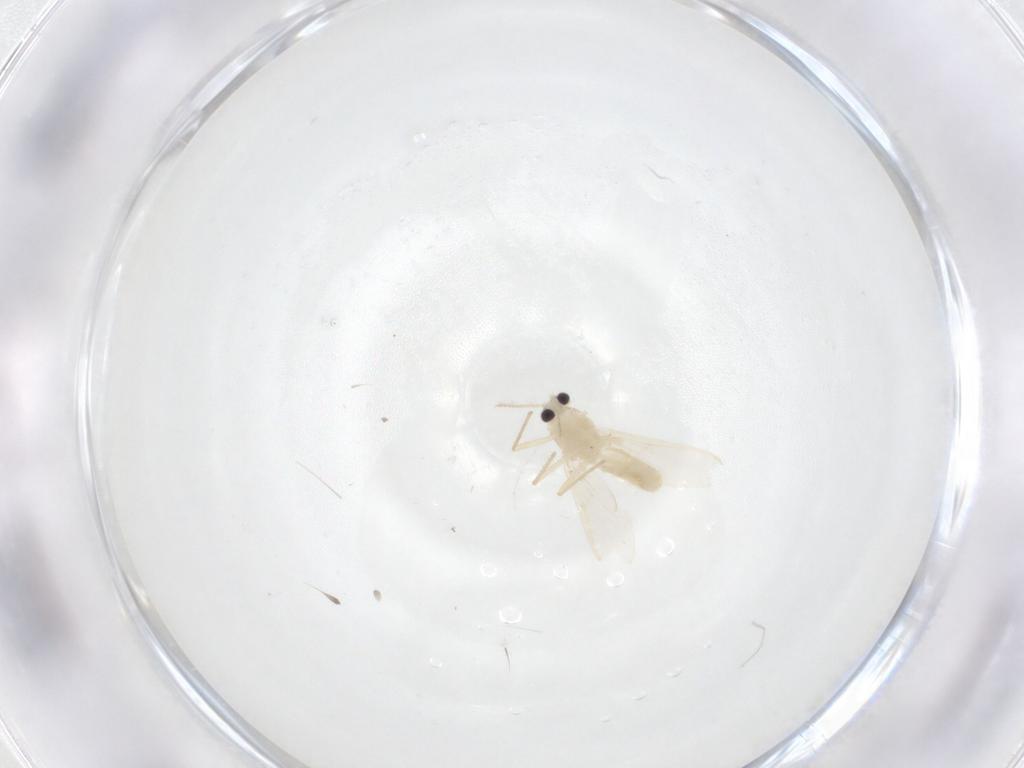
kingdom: Animalia
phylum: Arthropoda
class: Insecta
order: Diptera
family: Chironomidae
